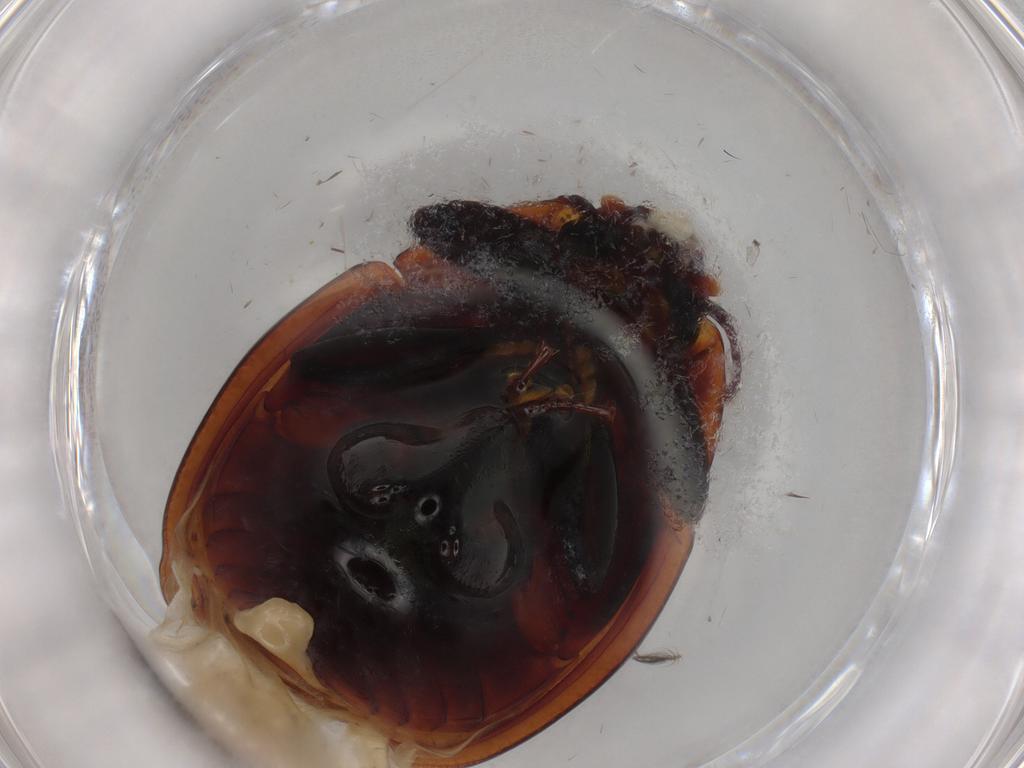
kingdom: Animalia
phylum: Arthropoda
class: Insecta
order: Coleoptera
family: Zopheridae
